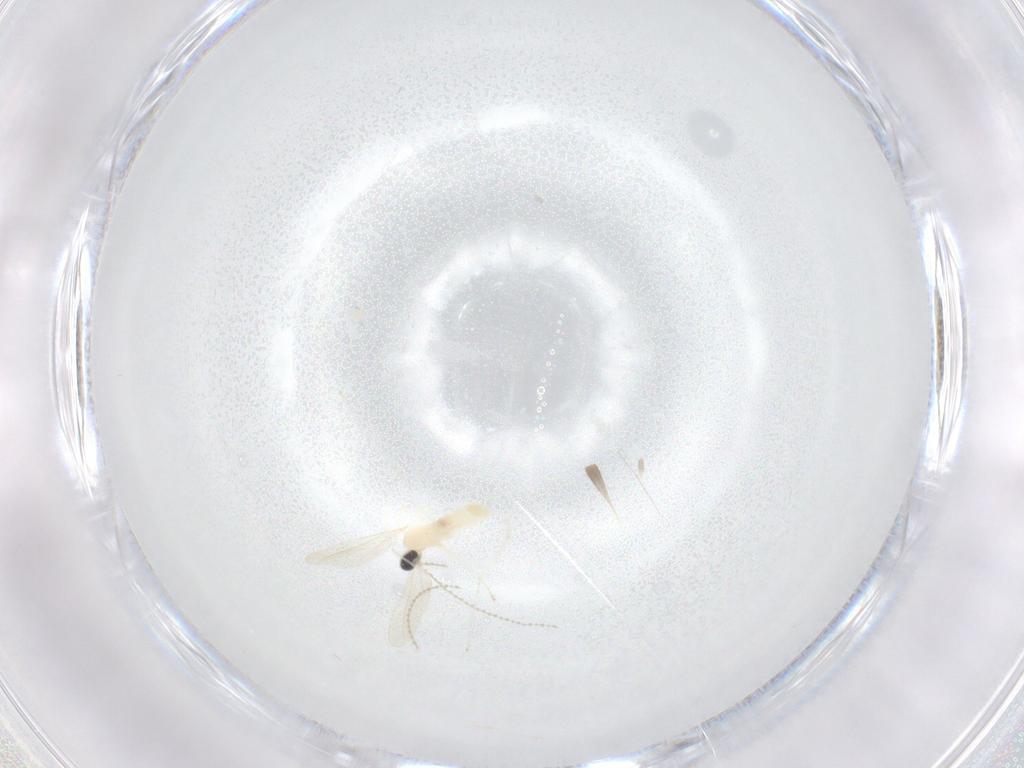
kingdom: Animalia
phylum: Arthropoda
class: Insecta
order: Diptera
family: Cecidomyiidae
